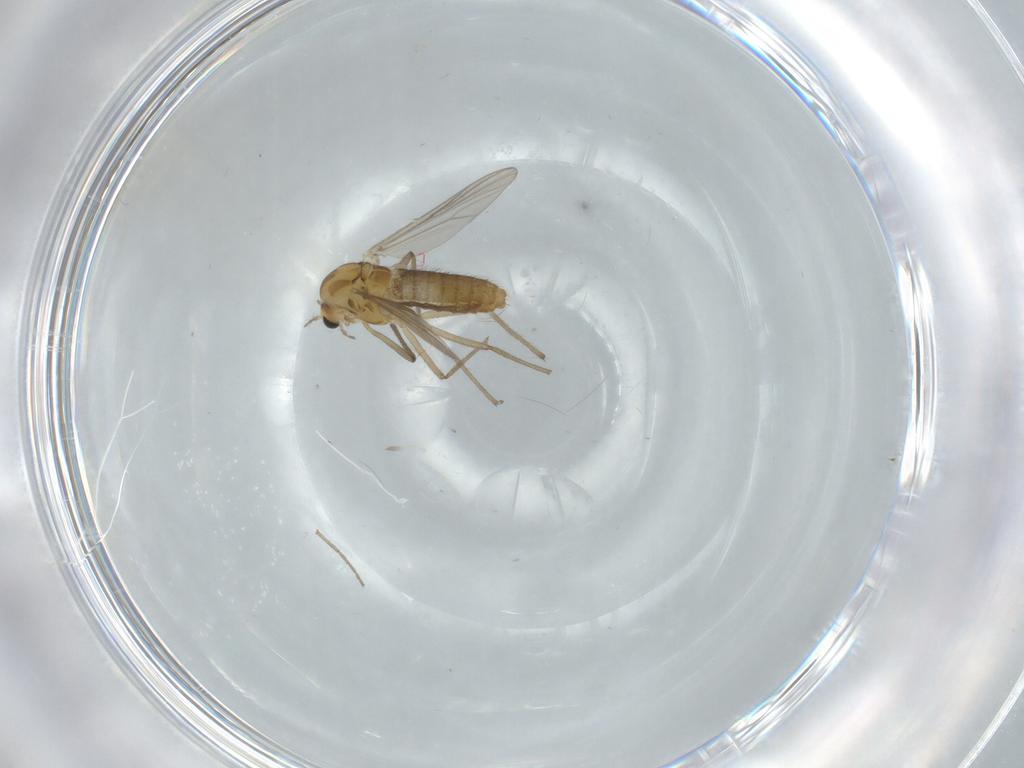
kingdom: Animalia
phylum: Arthropoda
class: Insecta
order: Diptera
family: Chironomidae
